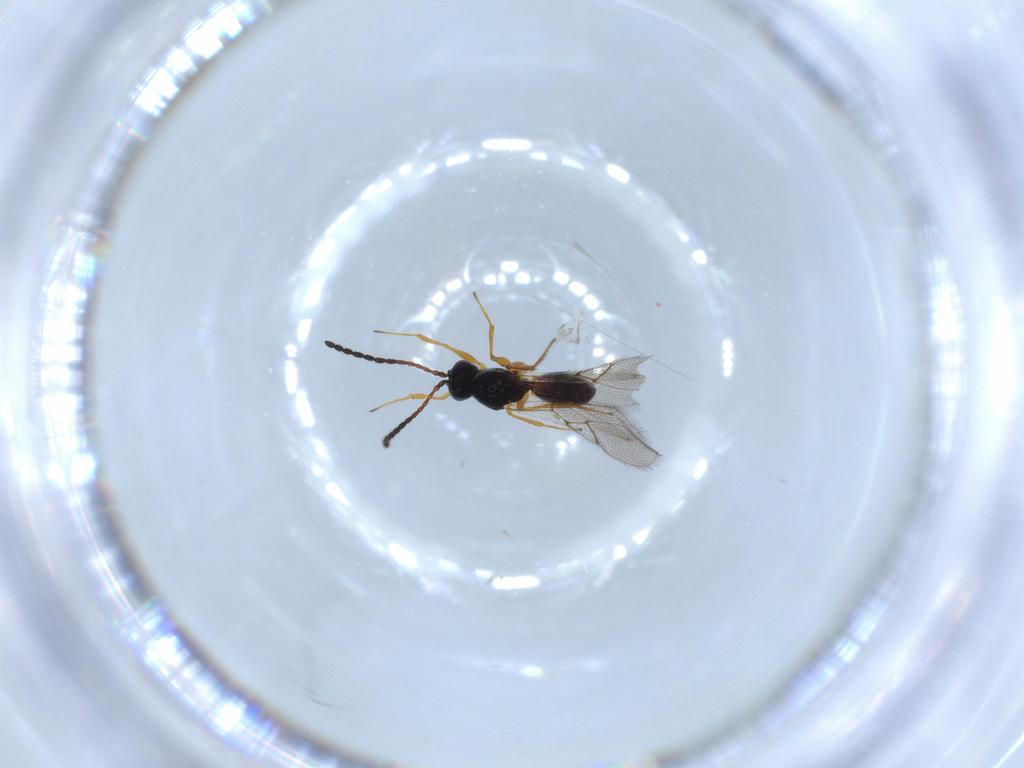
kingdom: Animalia
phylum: Arthropoda
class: Insecta
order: Hymenoptera
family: Figitidae
